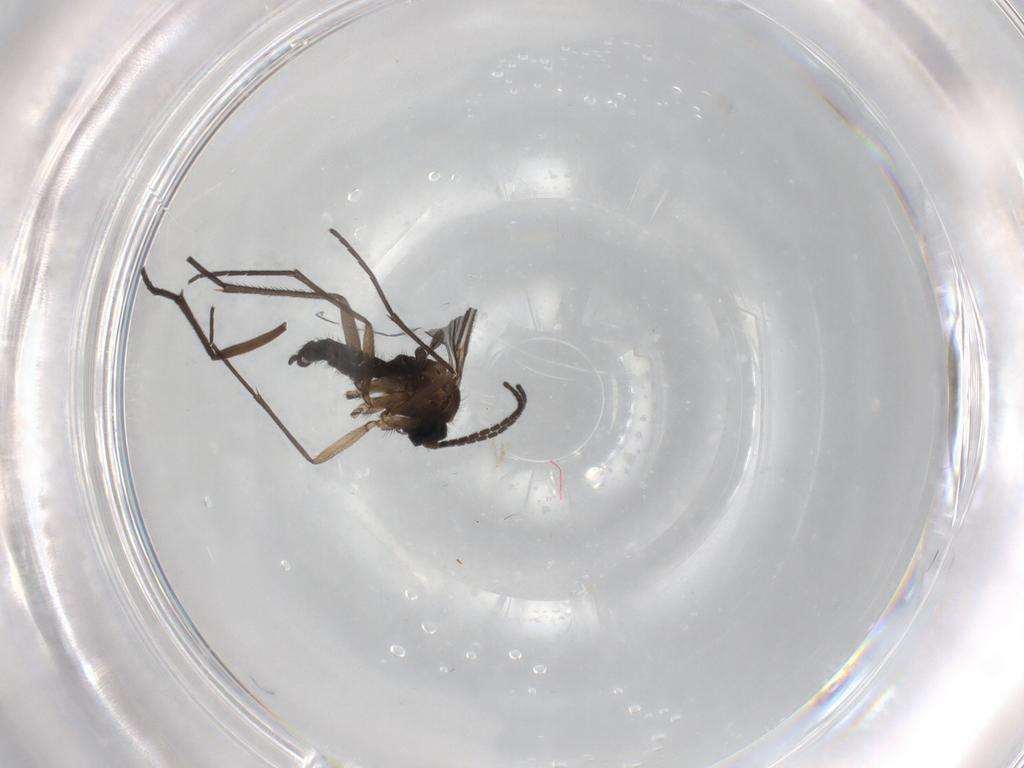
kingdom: Animalia
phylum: Arthropoda
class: Insecta
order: Diptera
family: Sciaridae
